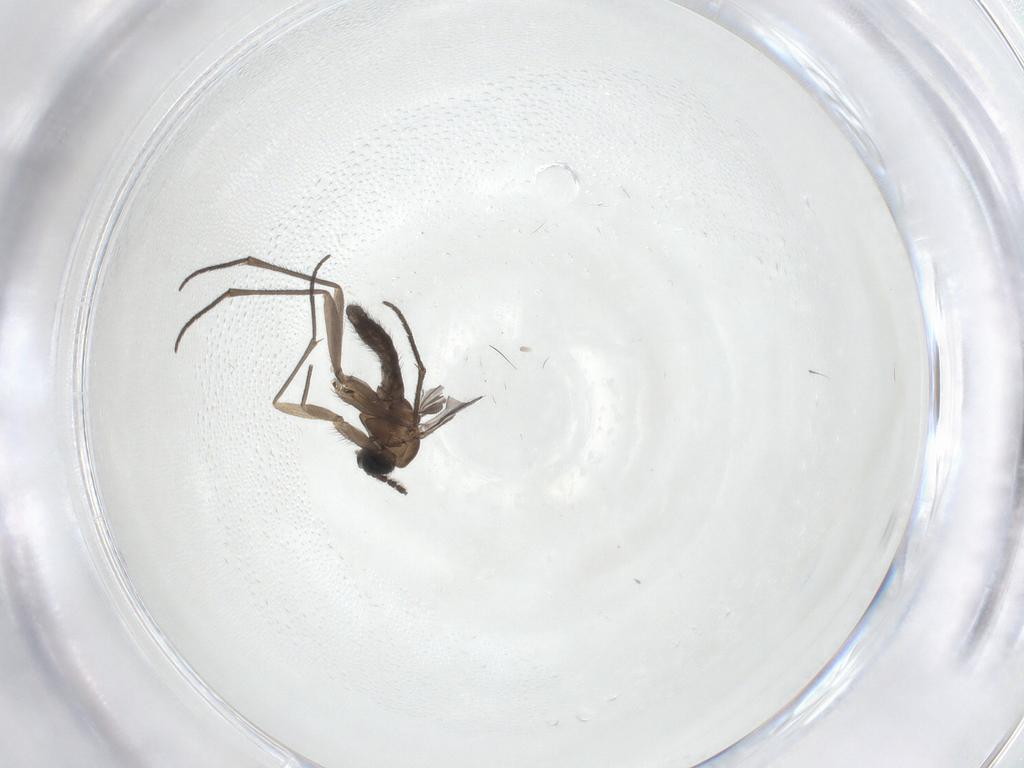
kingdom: Animalia
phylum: Arthropoda
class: Insecta
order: Diptera
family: Sciaridae
